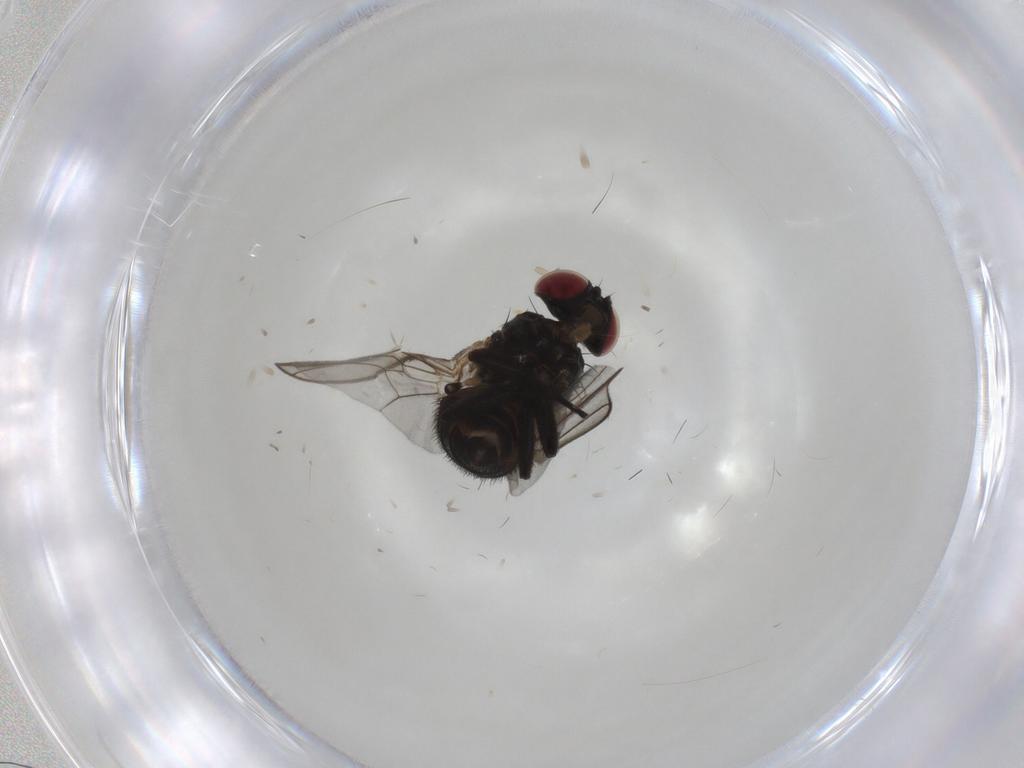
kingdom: Animalia
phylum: Arthropoda
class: Insecta
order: Diptera
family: Agromyzidae
